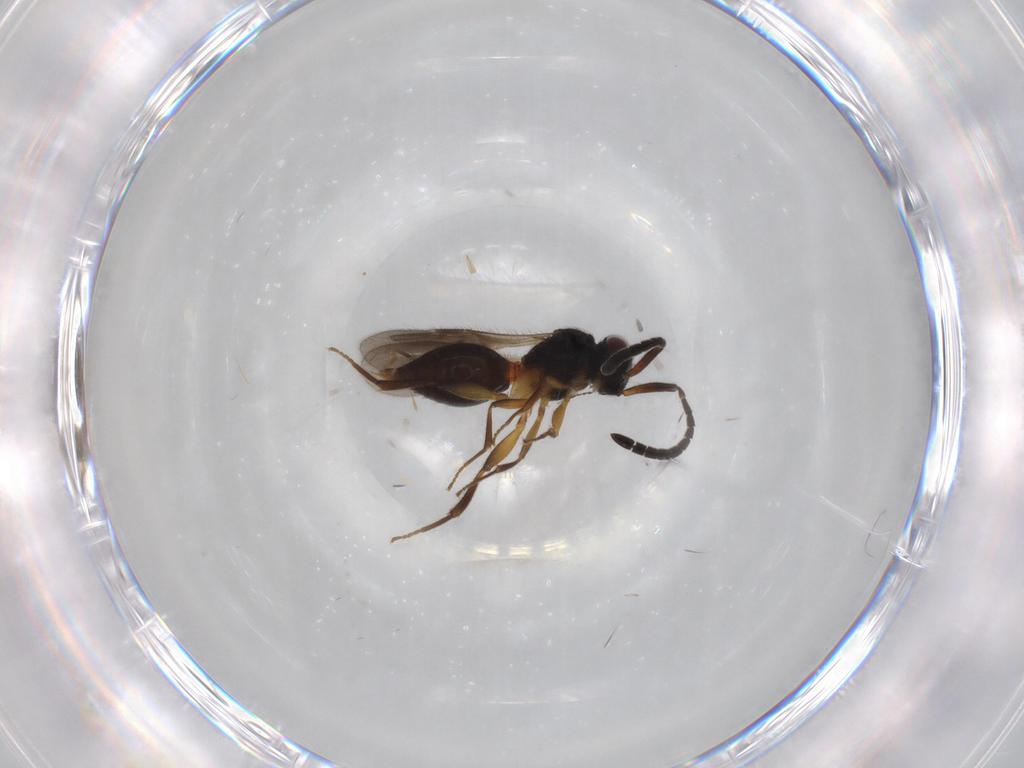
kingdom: Animalia
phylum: Arthropoda
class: Insecta
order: Hymenoptera
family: Megaspilidae
